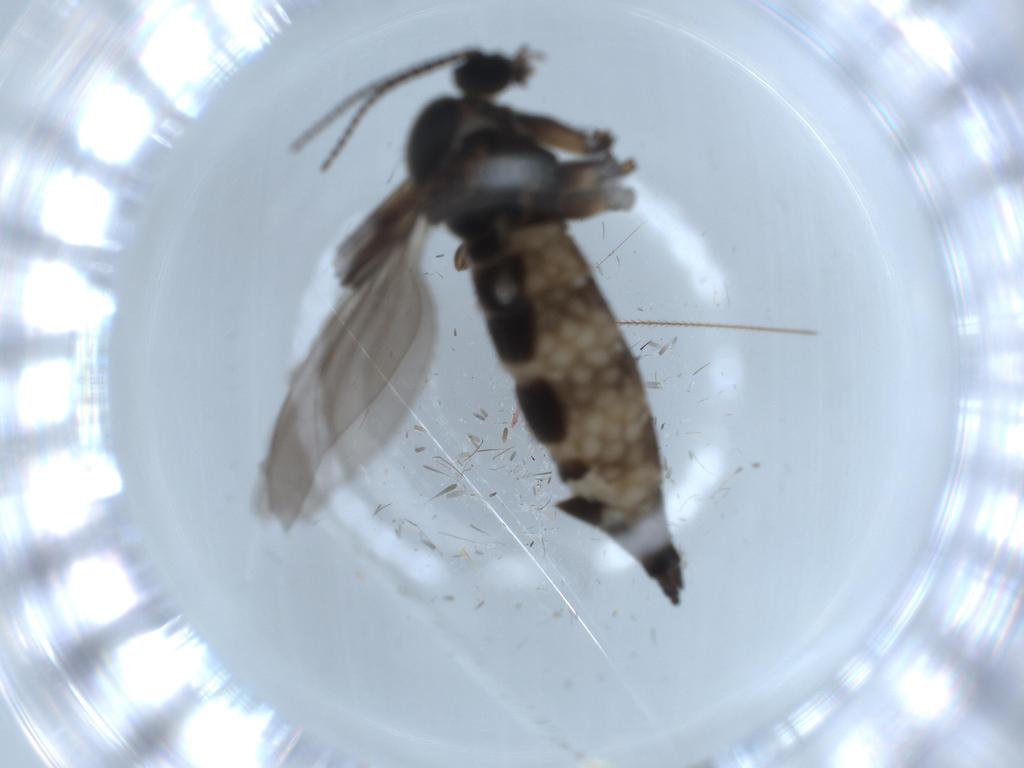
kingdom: Animalia
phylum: Arthropoda
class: Insecta
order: Diptera
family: Sciaridae
